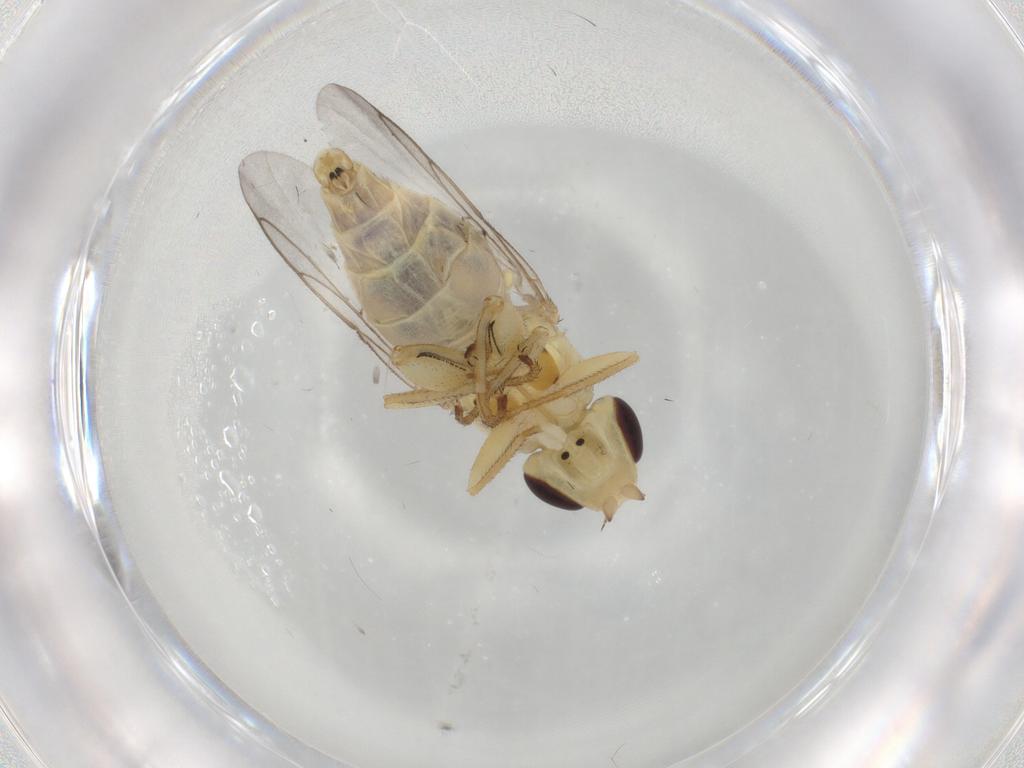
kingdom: Animalia
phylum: Arthropoda
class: Insecta
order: Diptera
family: Chloropidae
